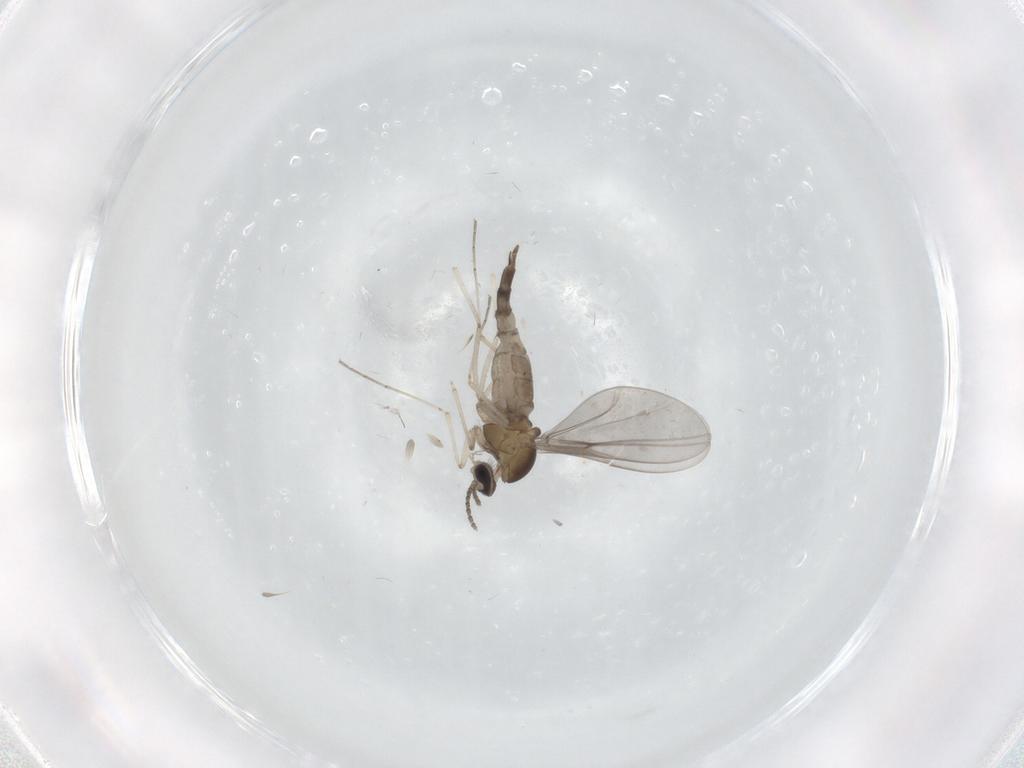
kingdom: Animalia
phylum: Arthropoda
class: Insecta
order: Diptera
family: Cecidomyiidae
